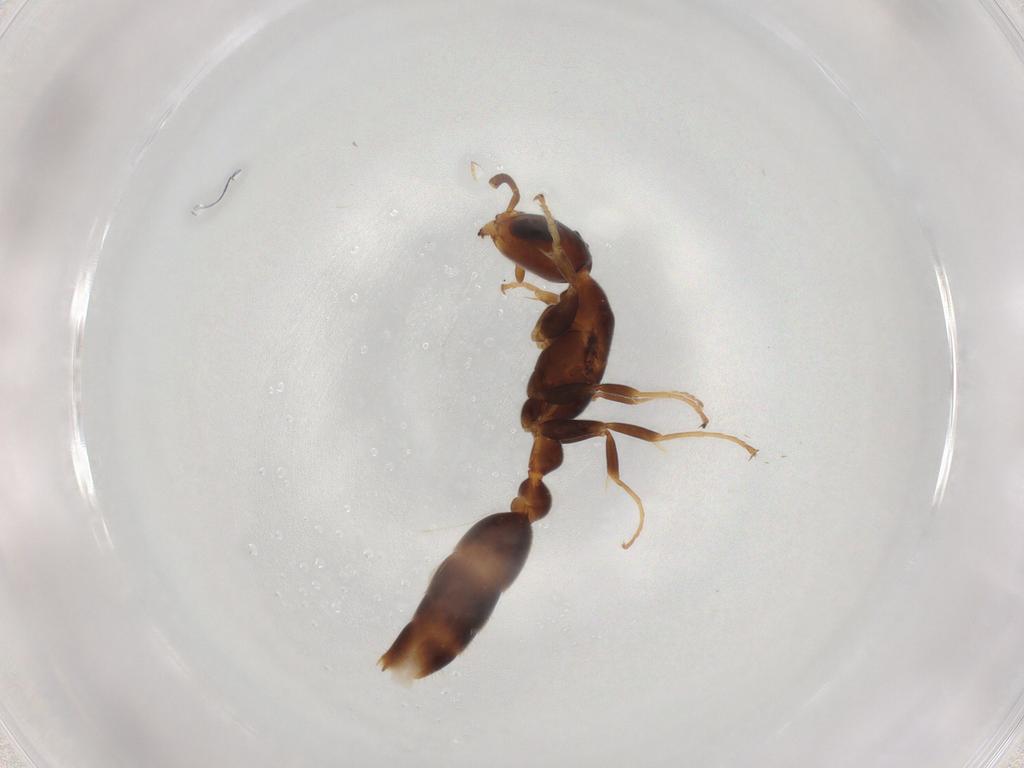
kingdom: Animalia
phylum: Arthropoda
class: Insecta
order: Hymenoptera
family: Formicidae
